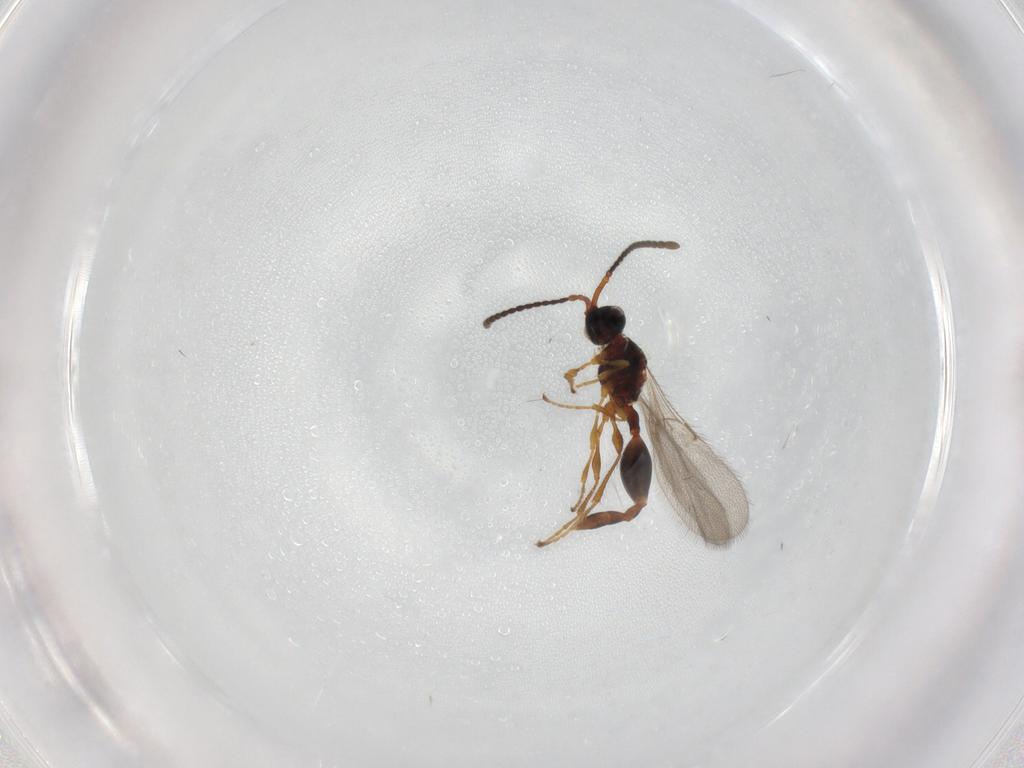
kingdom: Animalia
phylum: Arthropoda
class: Insecta
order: Hymenoptera
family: Diapriidae
